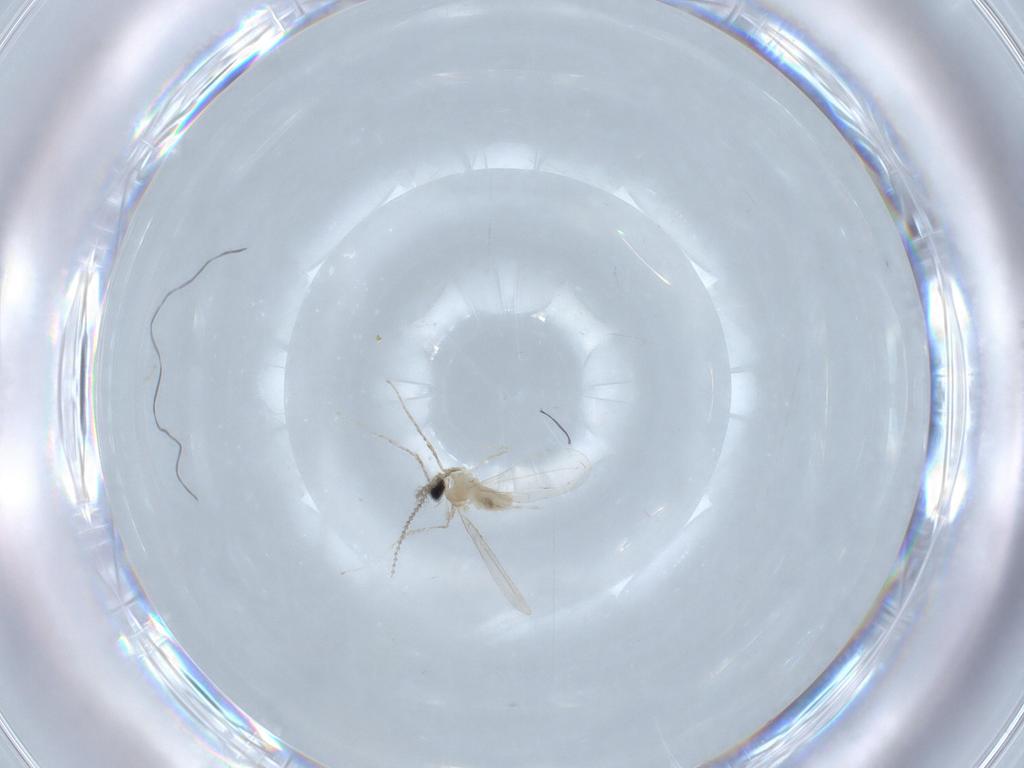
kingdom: Animalia
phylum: Arthropoda
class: Insecta
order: Diptera
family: Cecidomyiidae
